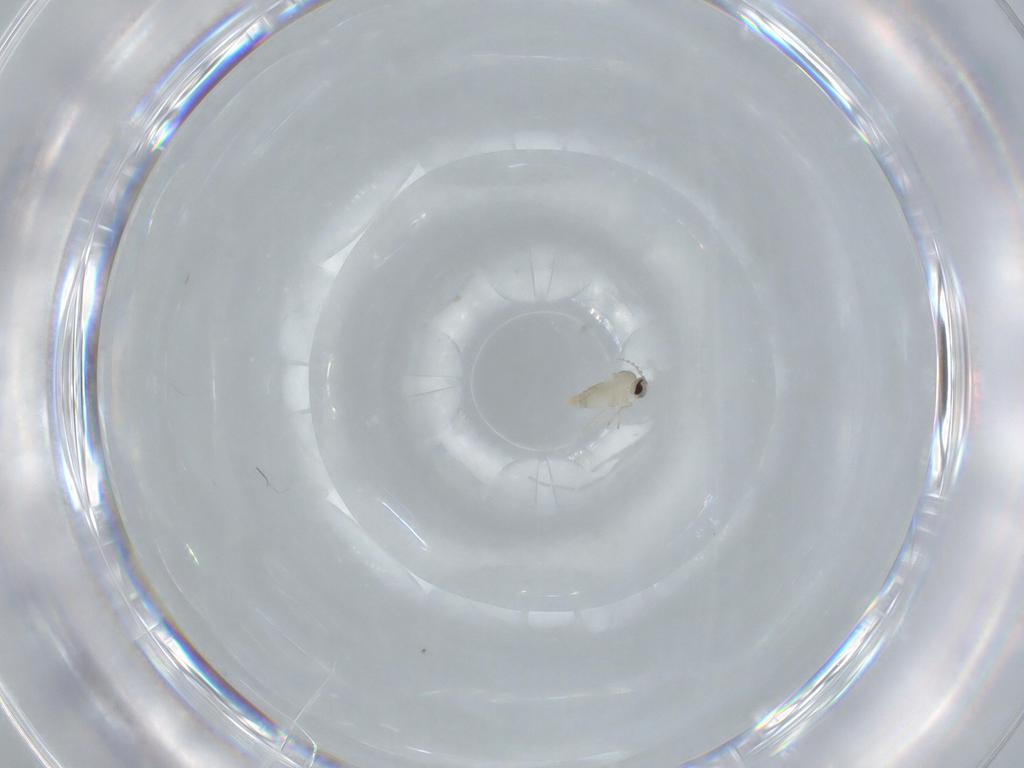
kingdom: Animalia
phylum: Arthropoda
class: Insecta
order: Diptera
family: Cecidomyiidae
